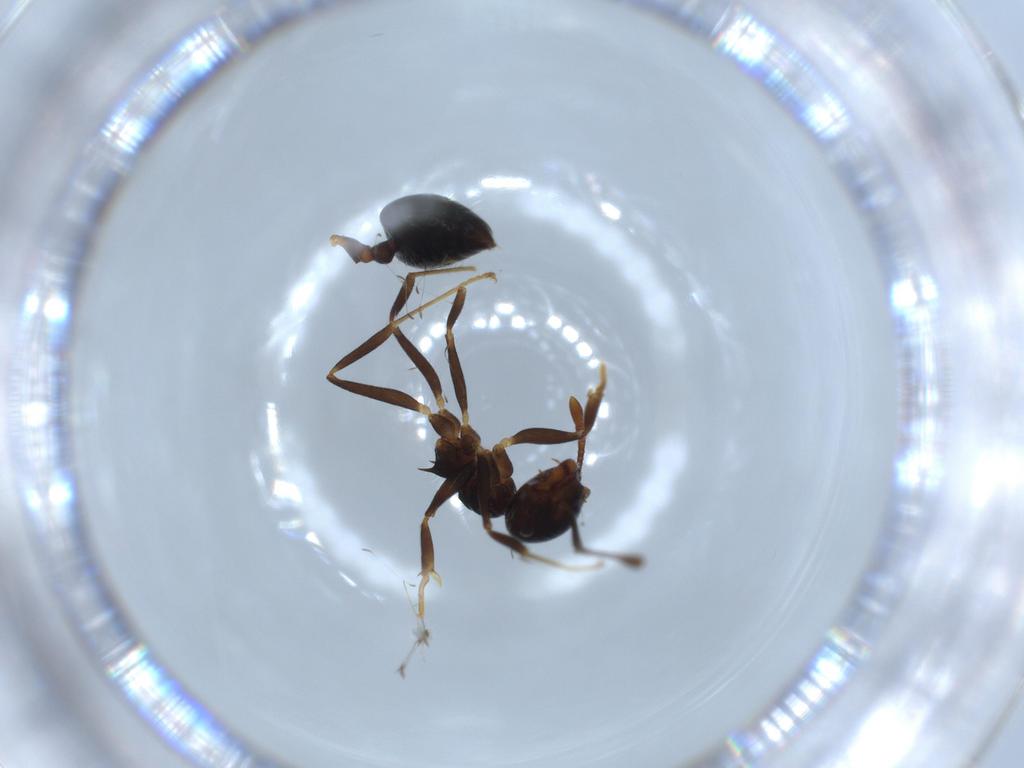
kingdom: Animalia
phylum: Arthropoda
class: Insecta
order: Hymenoptera
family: Formicidae
